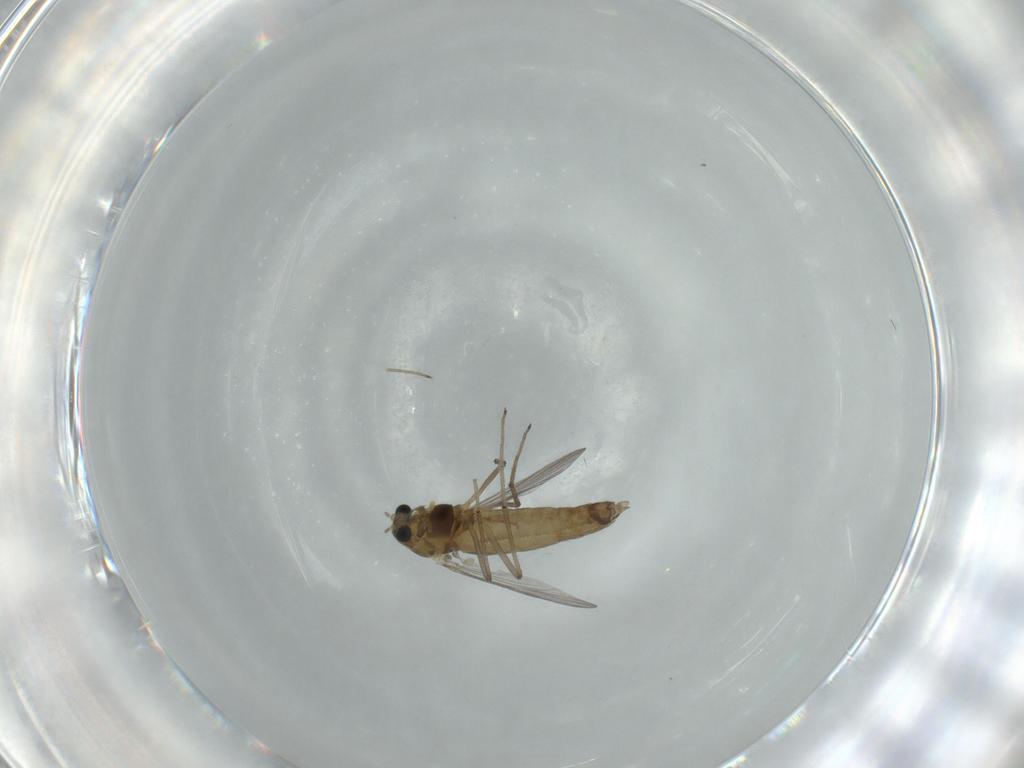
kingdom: Animalia
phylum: Arthropoda
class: Insecta
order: Diptera
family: Chironomidae
